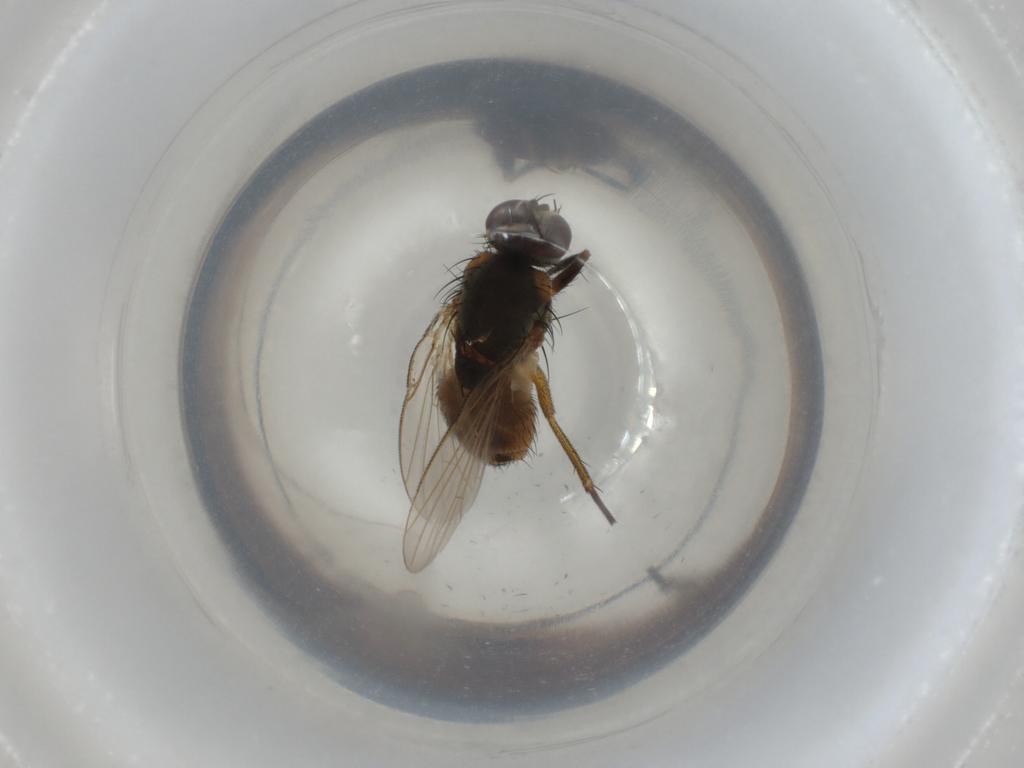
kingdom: Animalia
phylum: Arthropoda
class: Insecta
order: Diptera
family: Muscidae
